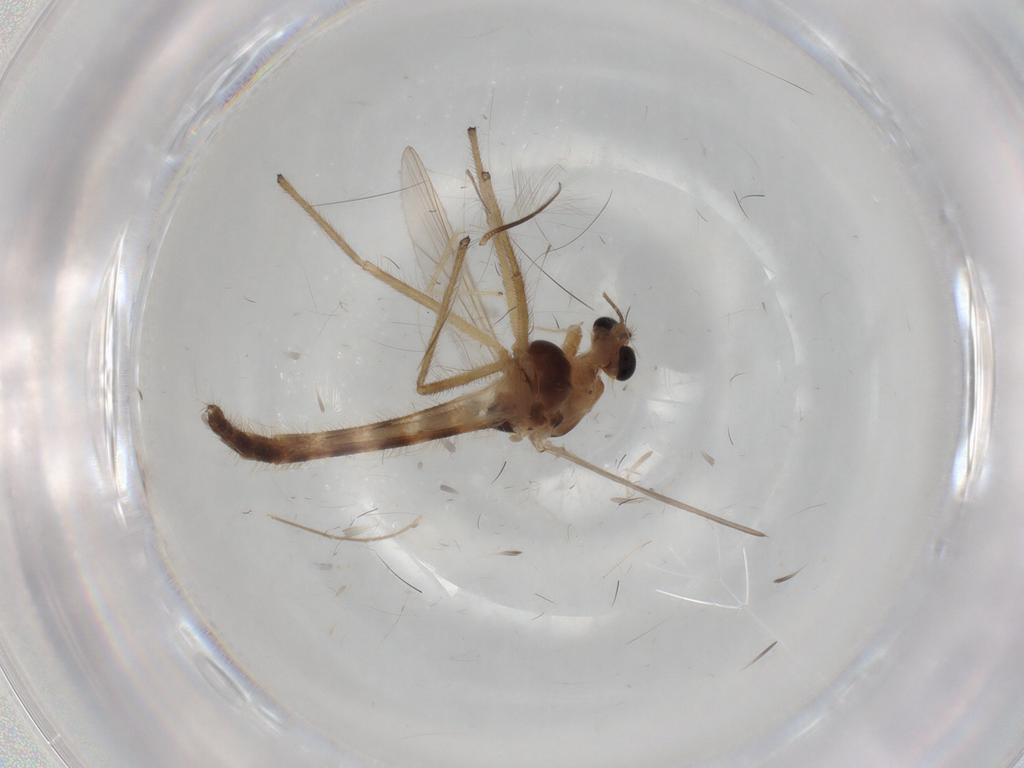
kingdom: Animalia
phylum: Arthropoda
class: Insecta
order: Diptera
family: Chironomidae
